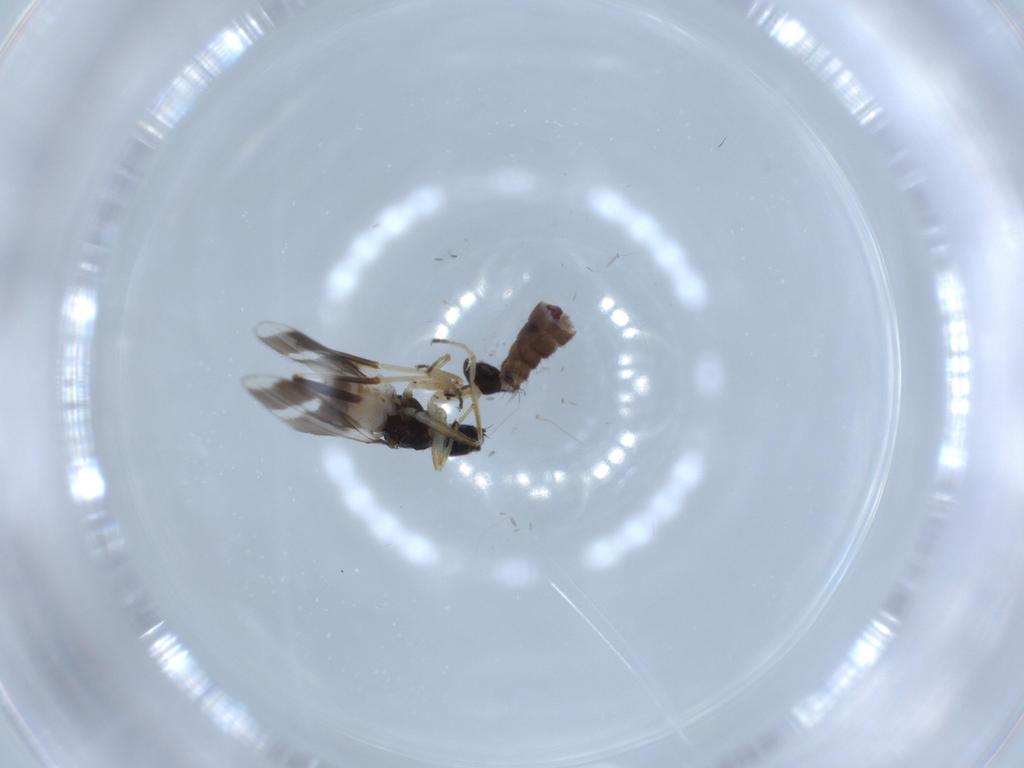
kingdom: Animalia
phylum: Arthropoda
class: Insecta
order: Diptera
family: Hybotidae
